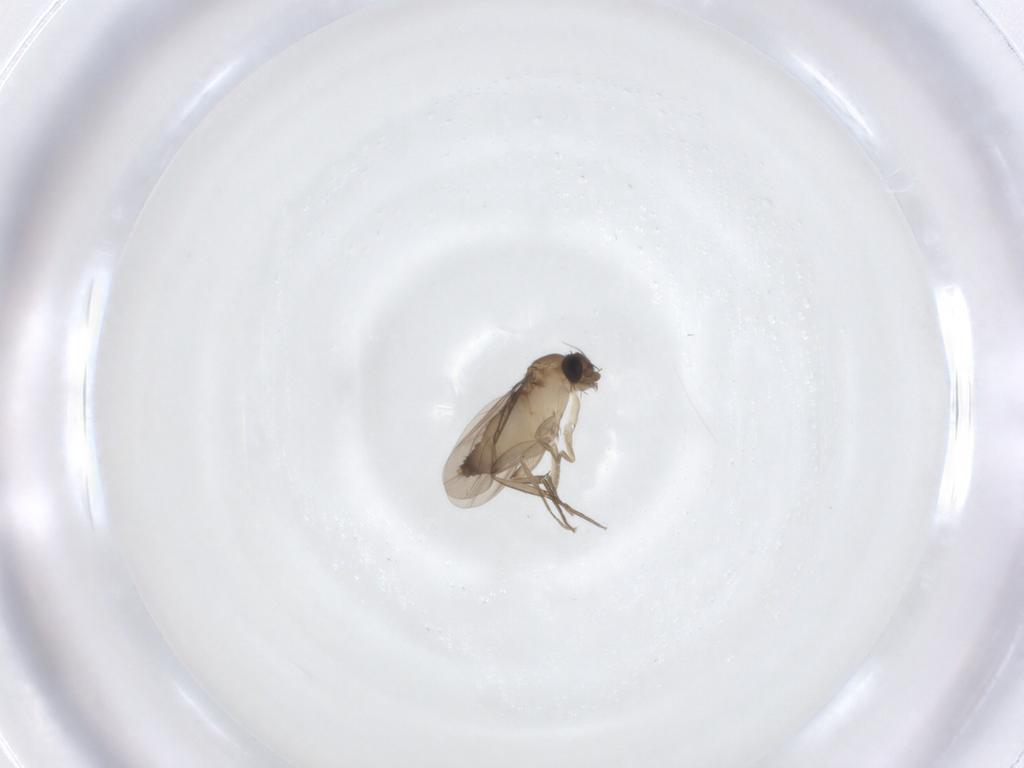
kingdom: Animalia
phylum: Arthropoda
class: Insecta
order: Diptera
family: Phoridae
